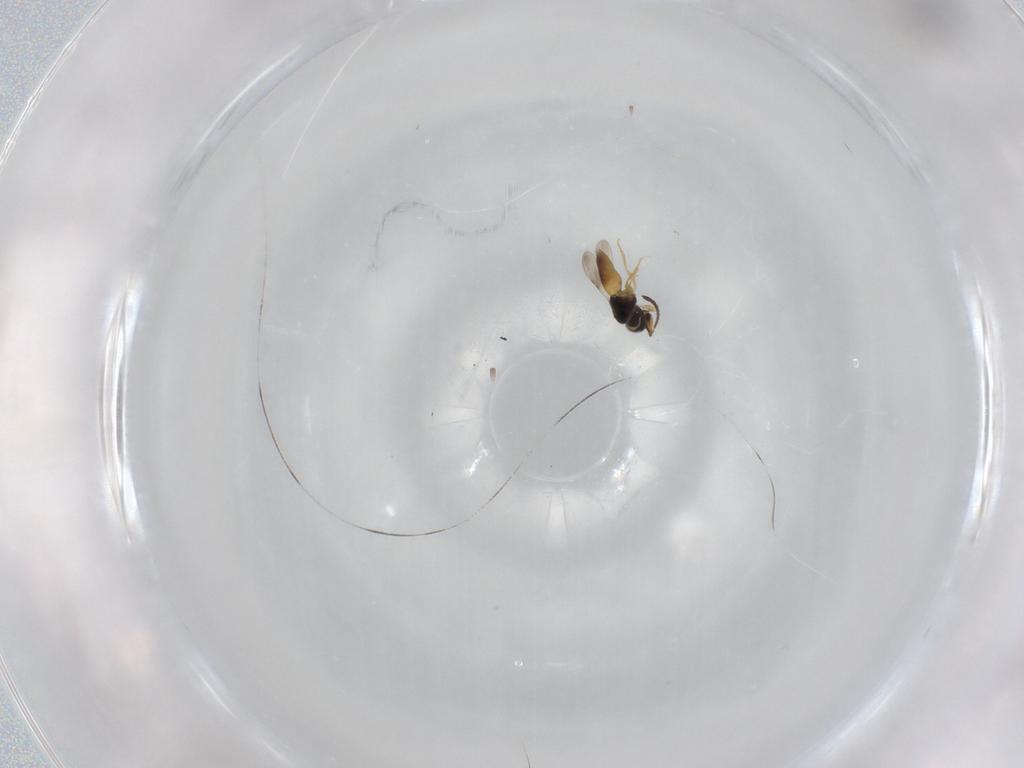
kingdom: Animalia
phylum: Arthropoda
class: Insecta
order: Hymenoptera
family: Ceraphronidae
